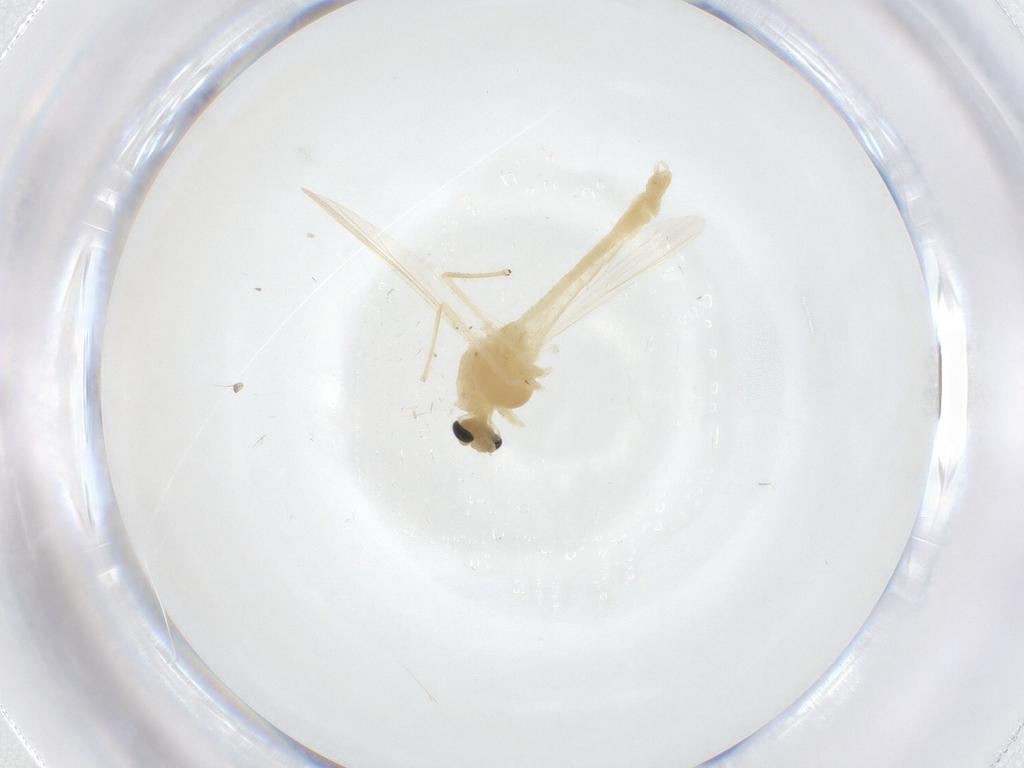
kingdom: Animalia
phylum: Arthropoda
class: Insecta
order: Diptera
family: Chironomidae
